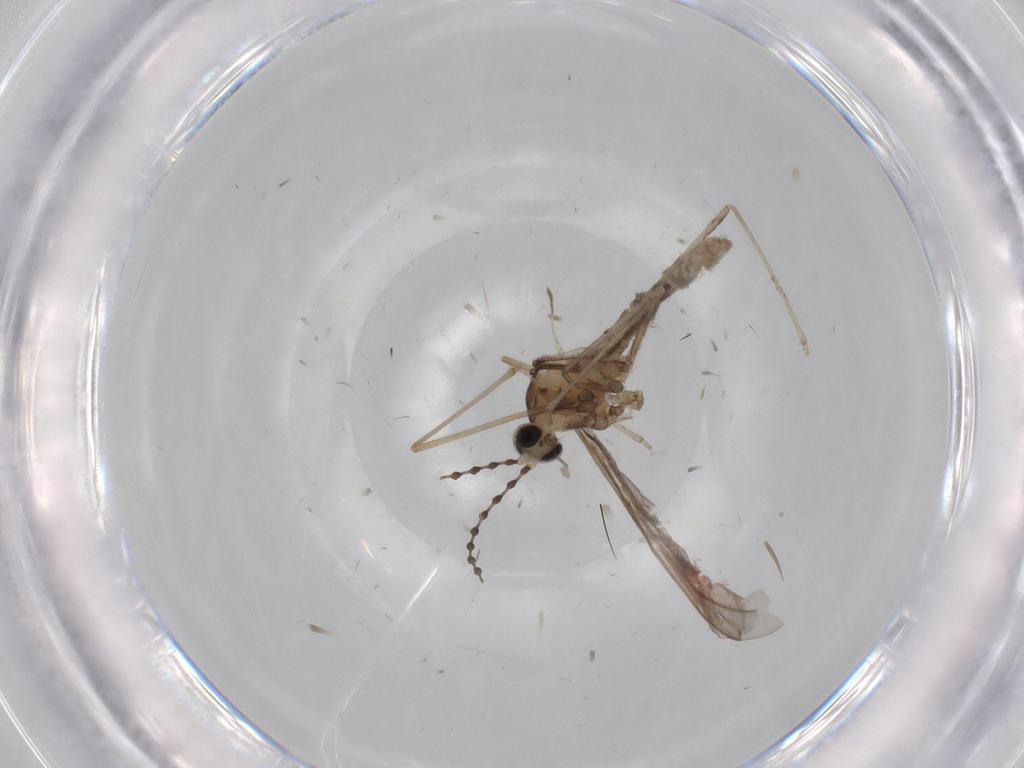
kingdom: Animalia
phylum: Arthropoda
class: Insecta
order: Diptera
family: Cecidomyiidae
